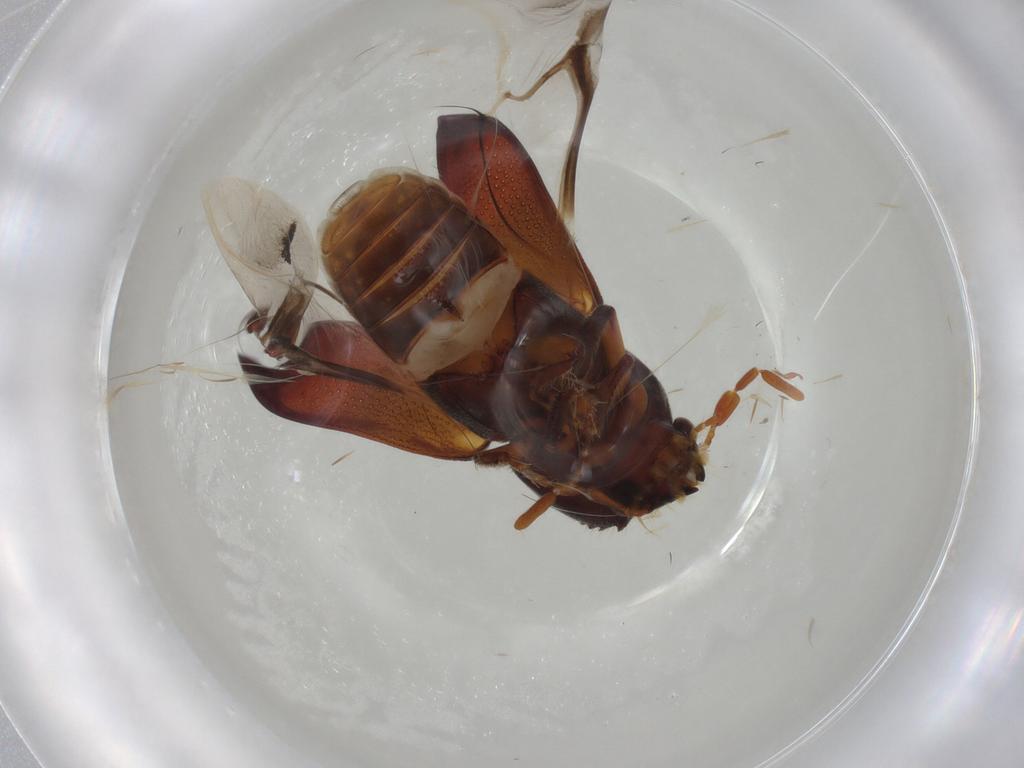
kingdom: Animalia
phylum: Arthropoda
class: Insecta
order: Coleoptera
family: Bostrichidae
